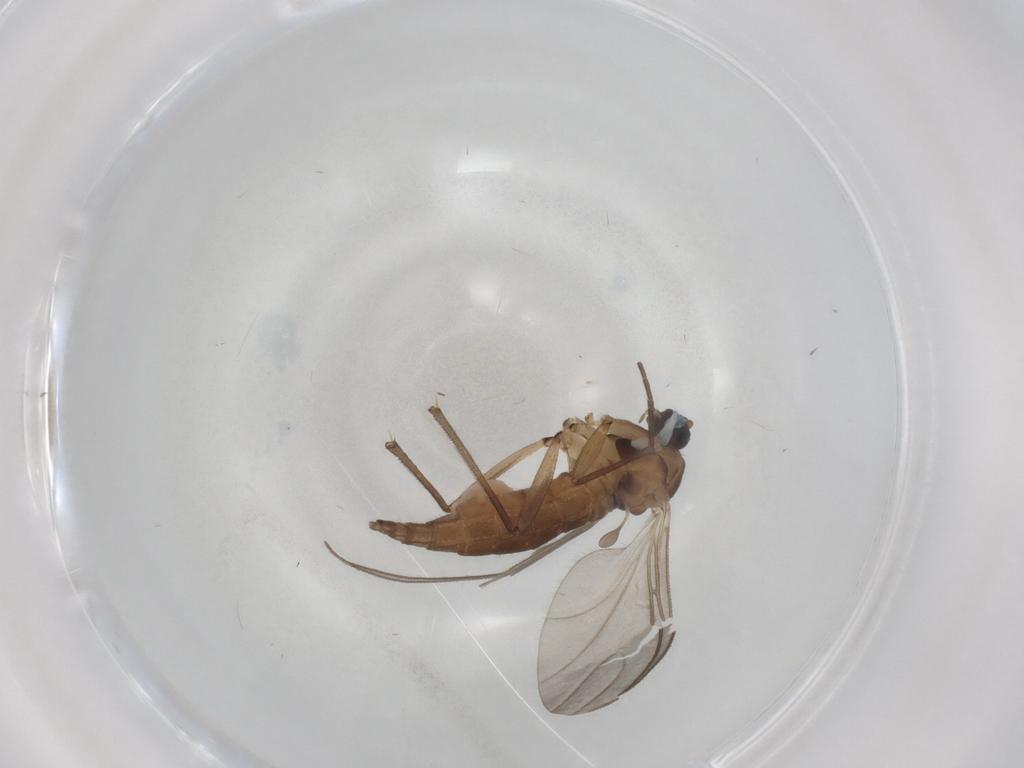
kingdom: Animalia
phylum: Arthropoda
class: Insecta
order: Diptera
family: Sciaridae
